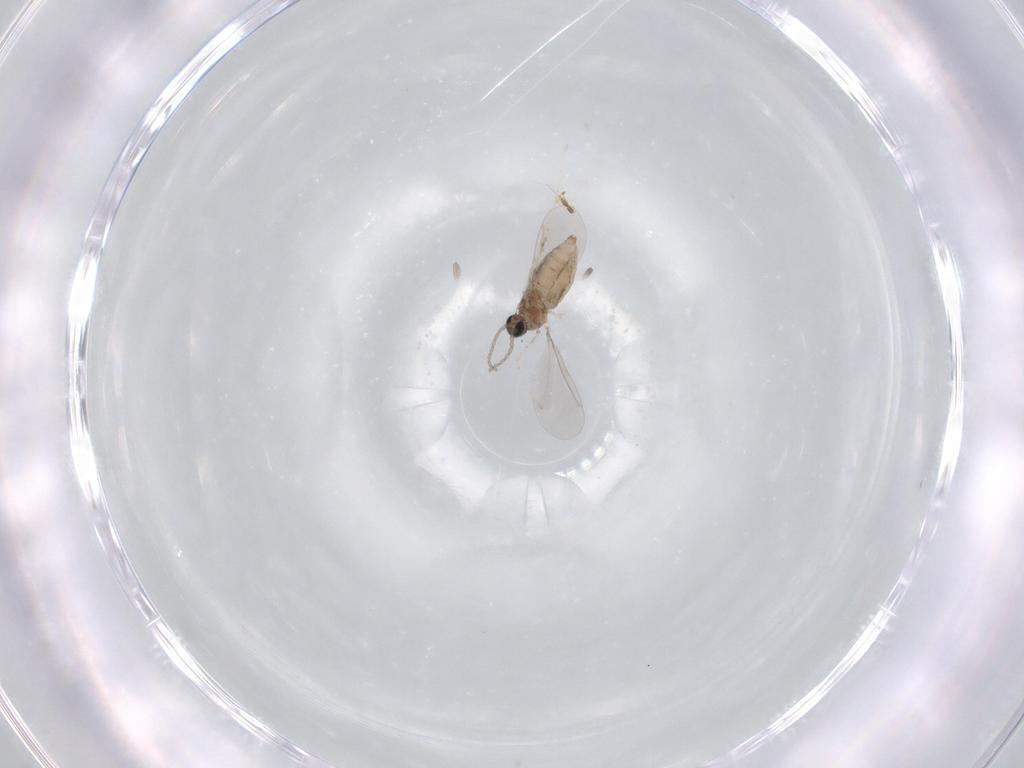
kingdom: Animalia
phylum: Arthropoda
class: Insecta
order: Diptera
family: Cecidomyiidae
